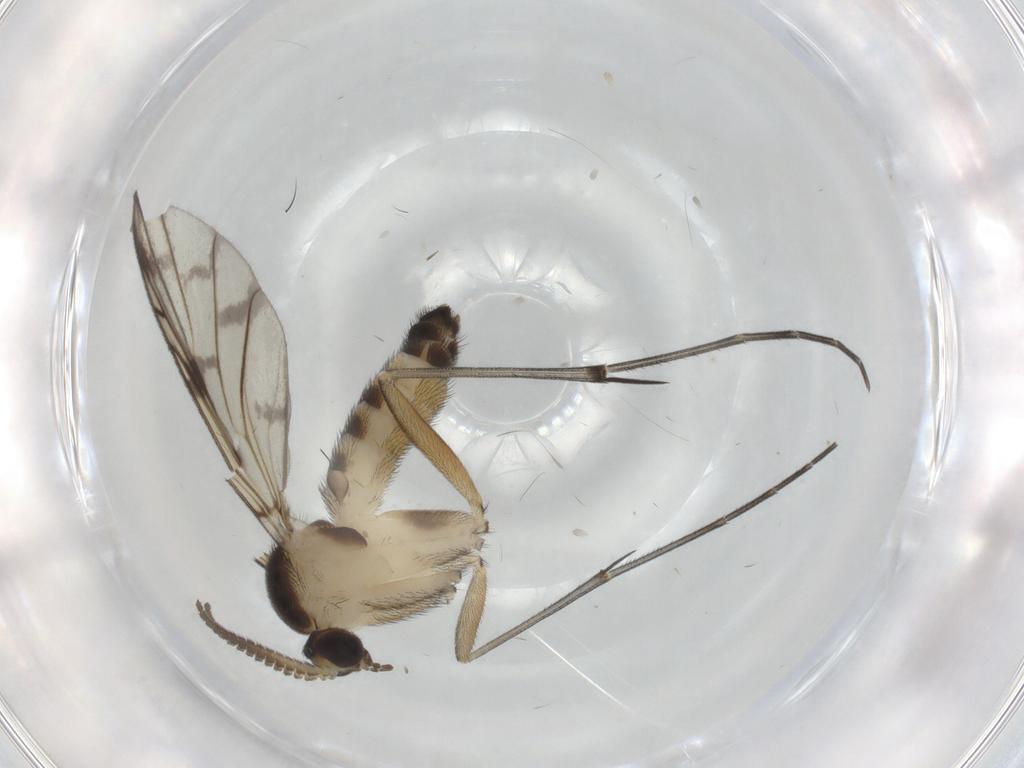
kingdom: Animalia
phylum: Arthropoda
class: Insecta
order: Diptera
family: Keroplatidae
